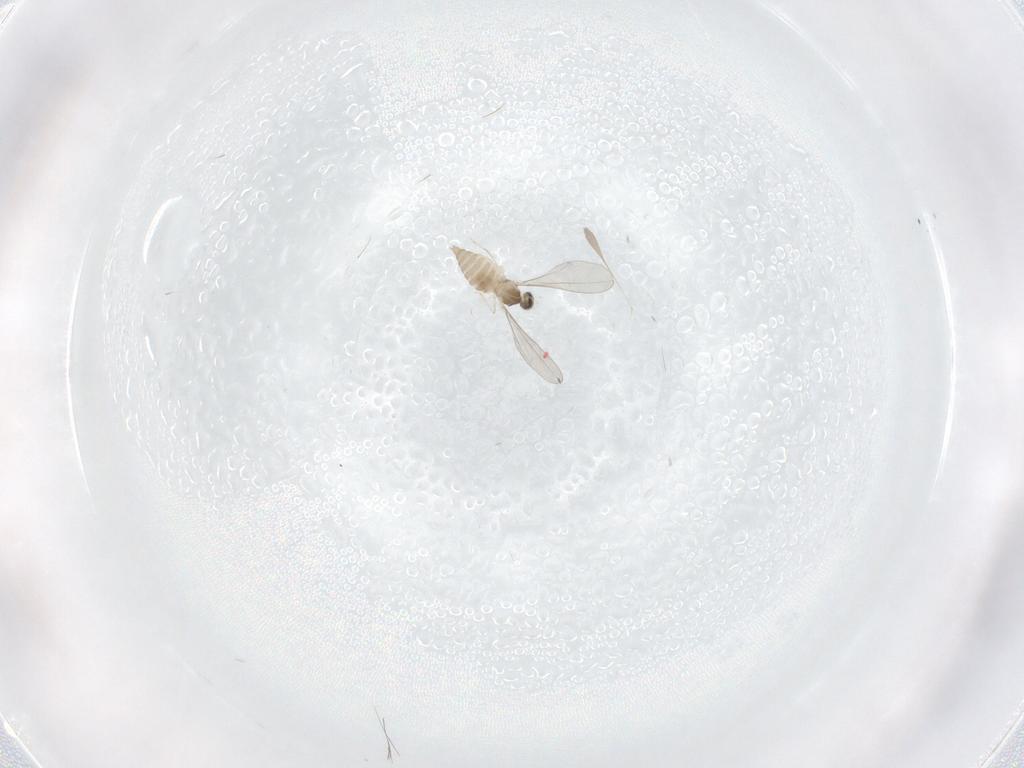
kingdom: Animalia
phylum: Arthropoda
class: Insecta
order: Diptera
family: Cecidomyiidae
